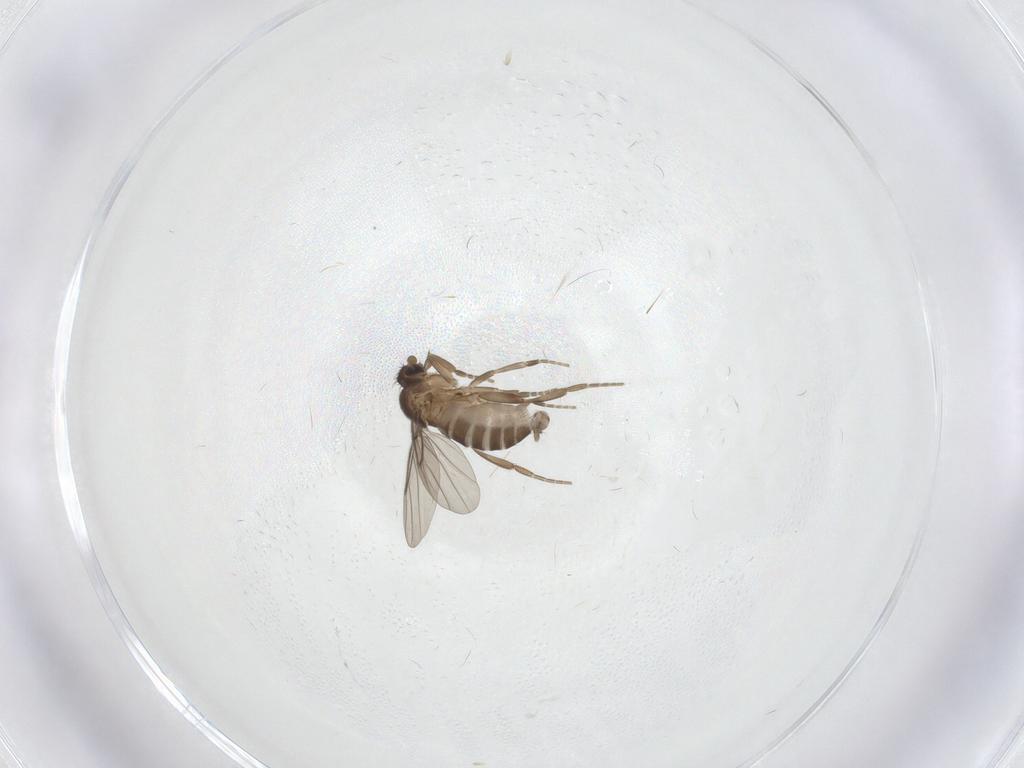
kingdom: Animalia
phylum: Arthropoda
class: Insecta
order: Diptera
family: Phoridae
